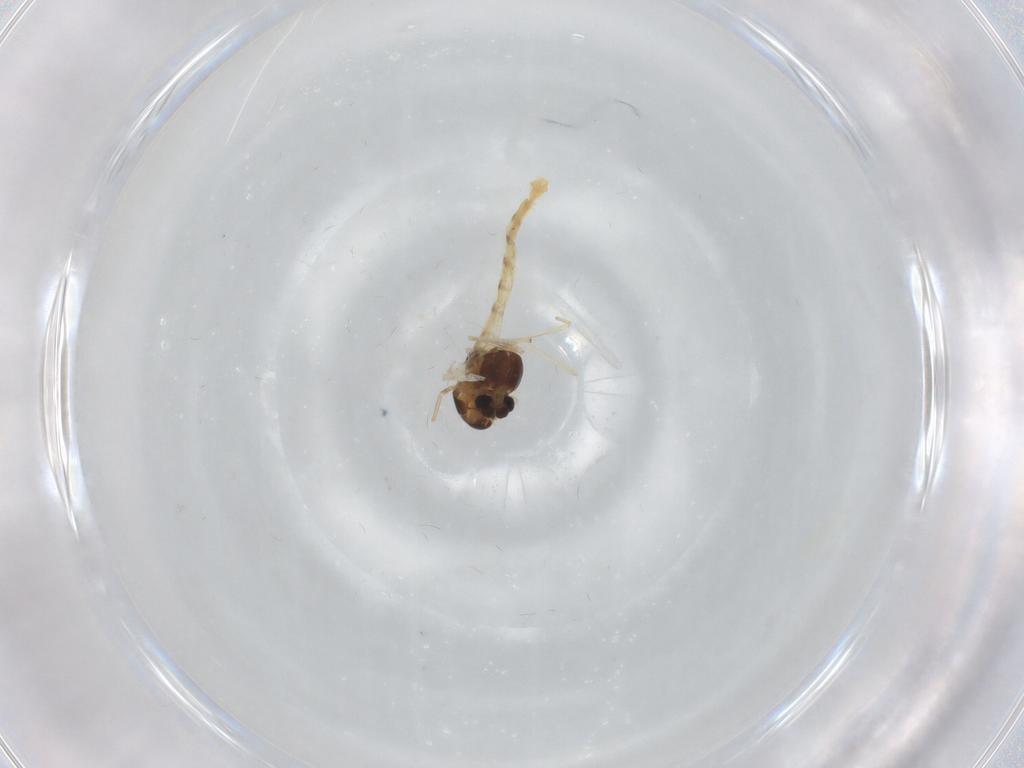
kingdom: Animalia
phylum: Arthropoda
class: Insecta
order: Diptera
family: Chironomidae
